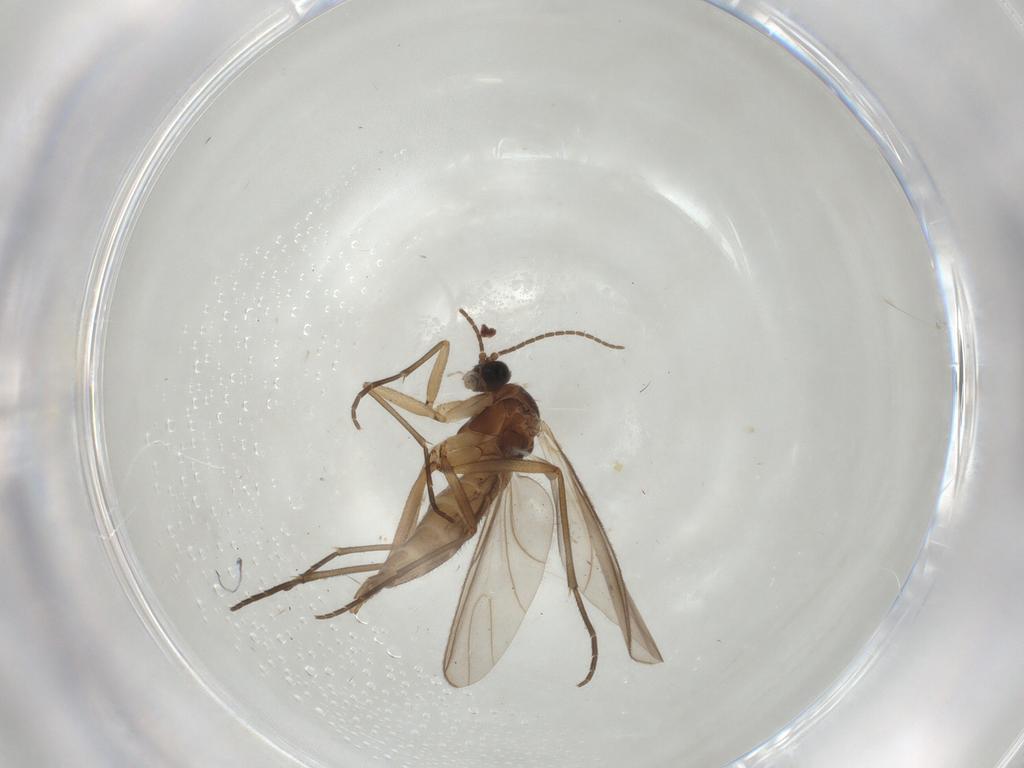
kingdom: Animalia
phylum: Arthropoda
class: Insecta
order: Diptera
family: Sciaridae
